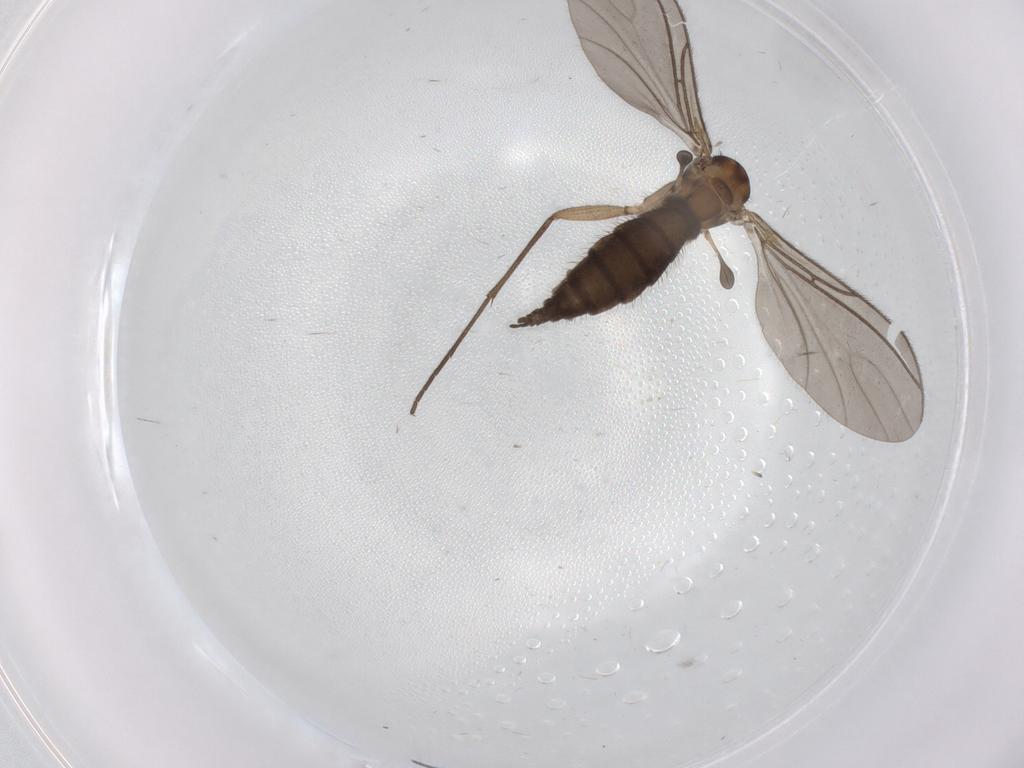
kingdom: Animalia
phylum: Arthropoda
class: Insecta
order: Diptera
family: Sciaridae
